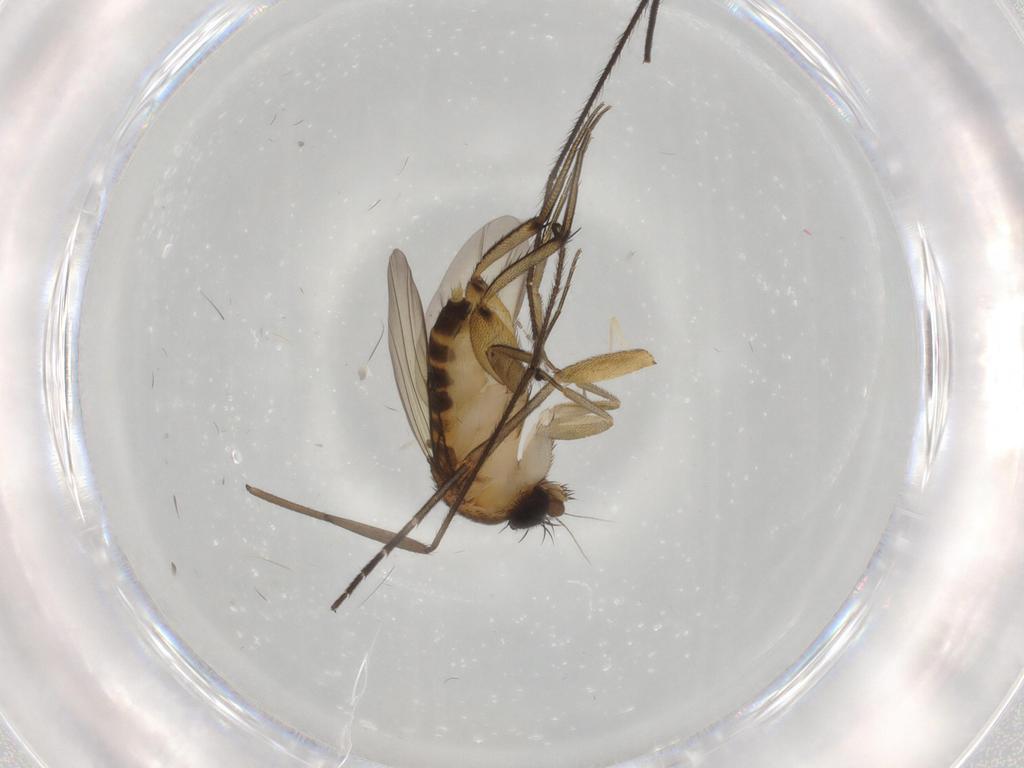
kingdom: Animalia
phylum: Arthropoda
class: Insecta
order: Diptera
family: Phoridae
